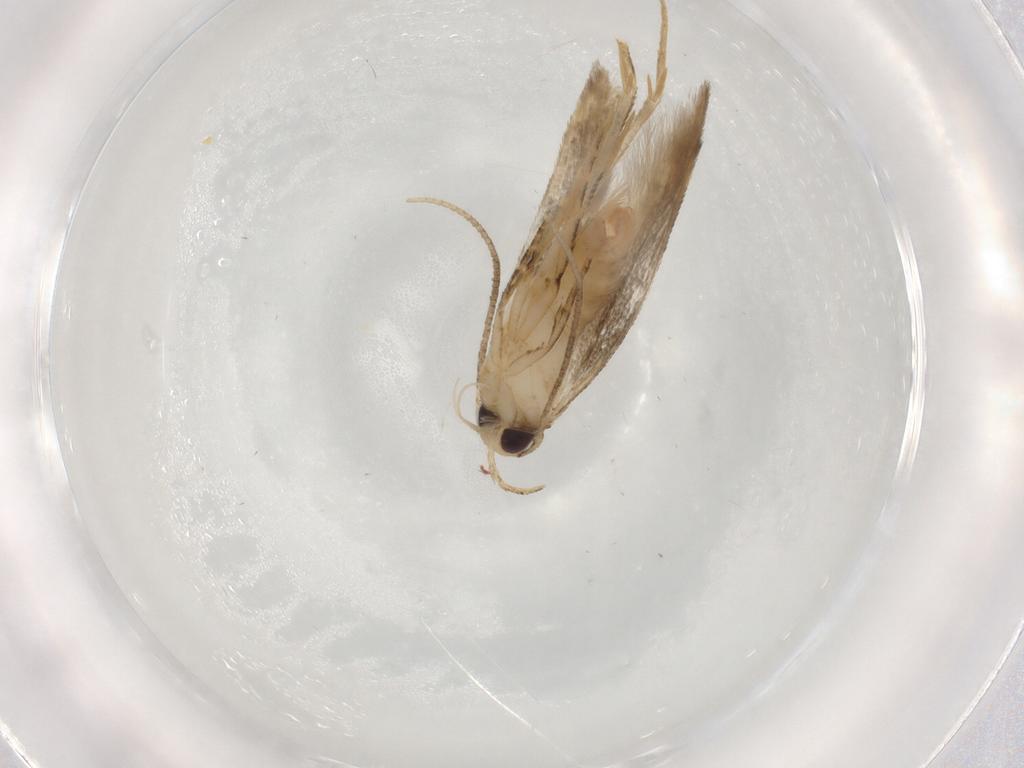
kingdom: Animalia
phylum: Arthropoda
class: Insecta
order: Lepidoptera
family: Cosmopterigidae
